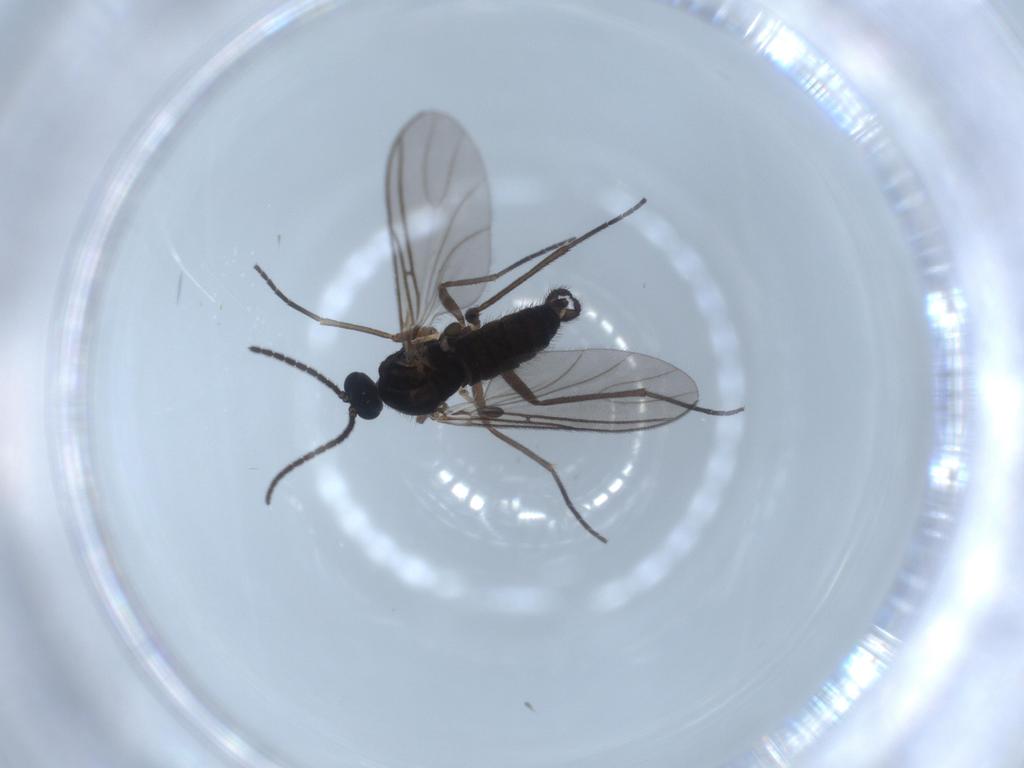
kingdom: Animalia
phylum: Arthropoda
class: Insecta
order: Diptera
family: Sciaridae
